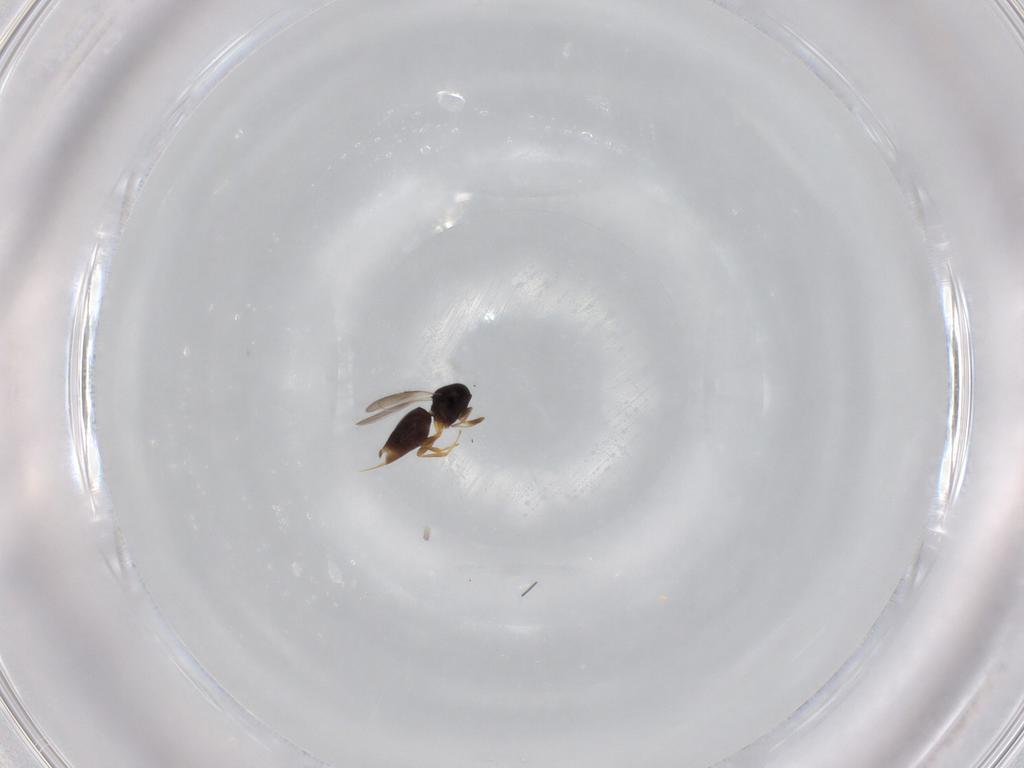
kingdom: Animalia
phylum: Arthropoda
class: Insecta
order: Hymenoptera
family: Ceraphronidae
